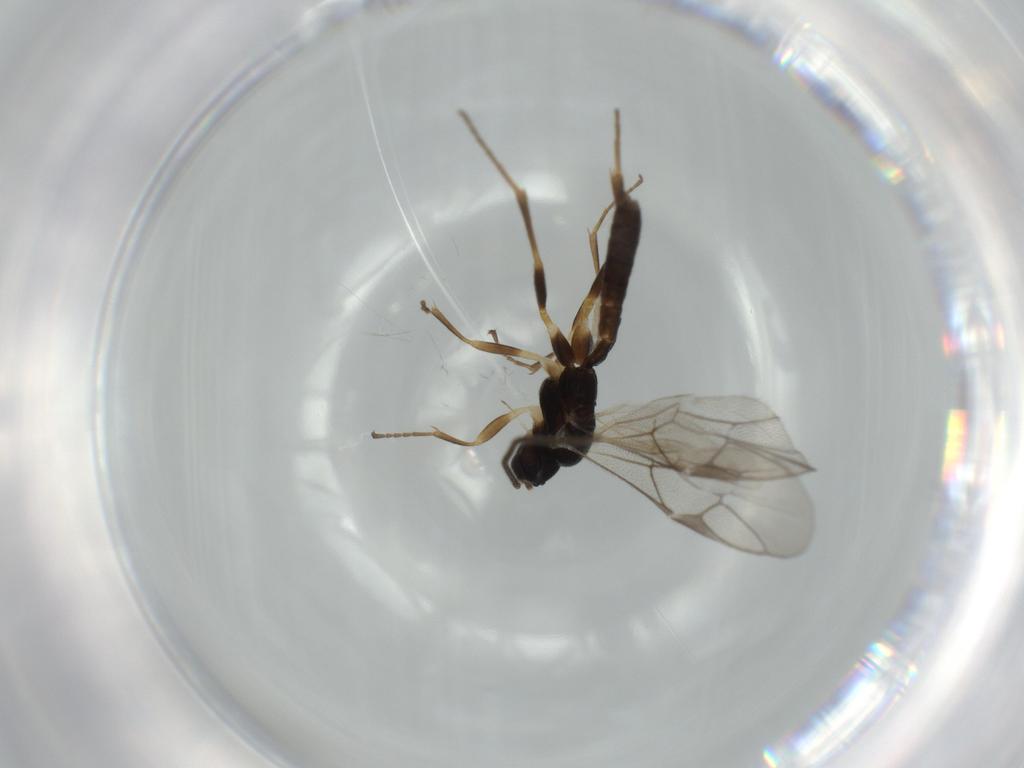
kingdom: Animalia
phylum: Arthropoda
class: Insecta
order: Hymenoptera
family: Ichneumonidae
